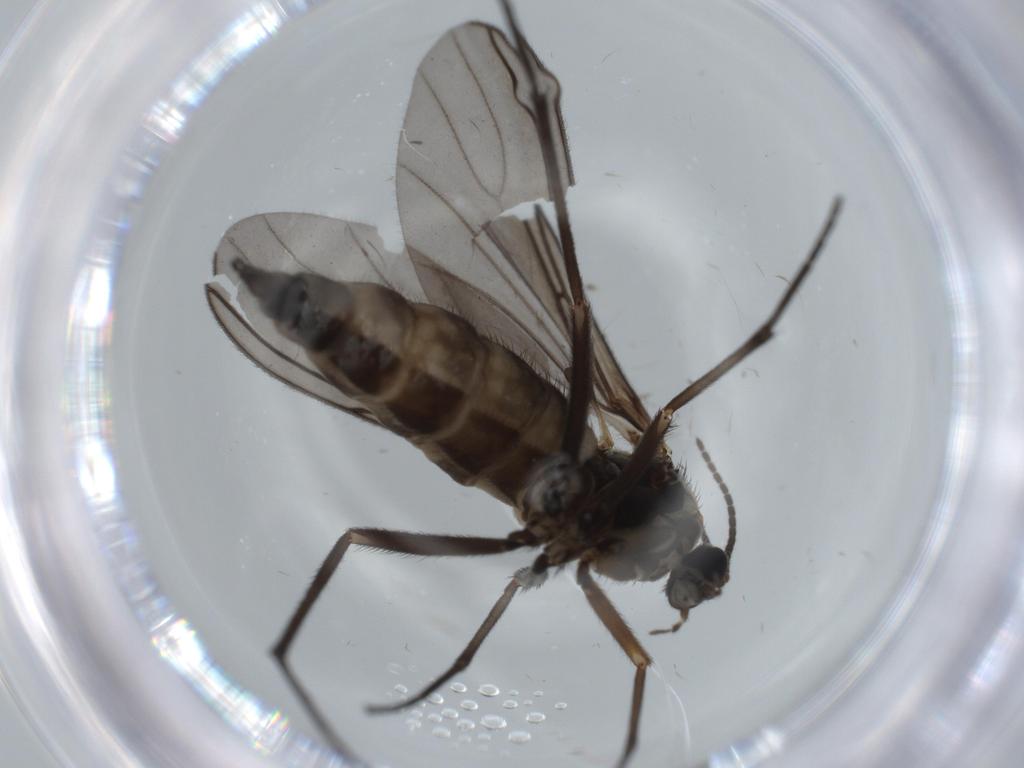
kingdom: Animalia
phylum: Arthropoda
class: Insecta
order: Diptera
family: Sciaridae
